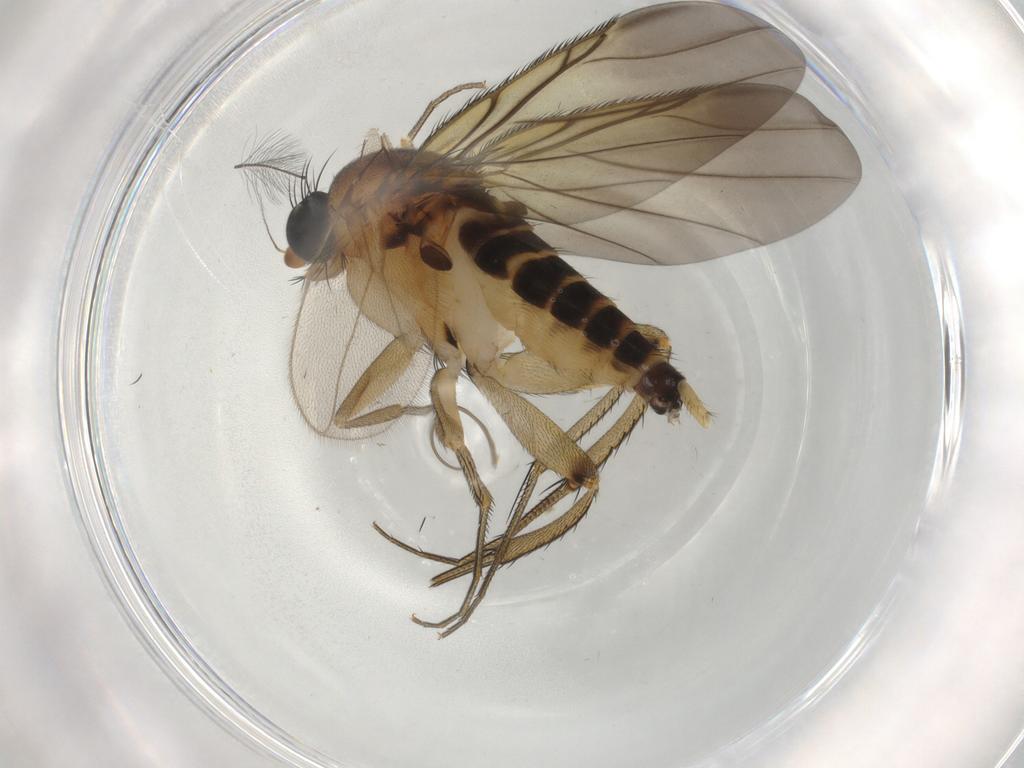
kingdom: Animalia
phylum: Arthropoda
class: Insecta
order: Diptera
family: Phoridae
